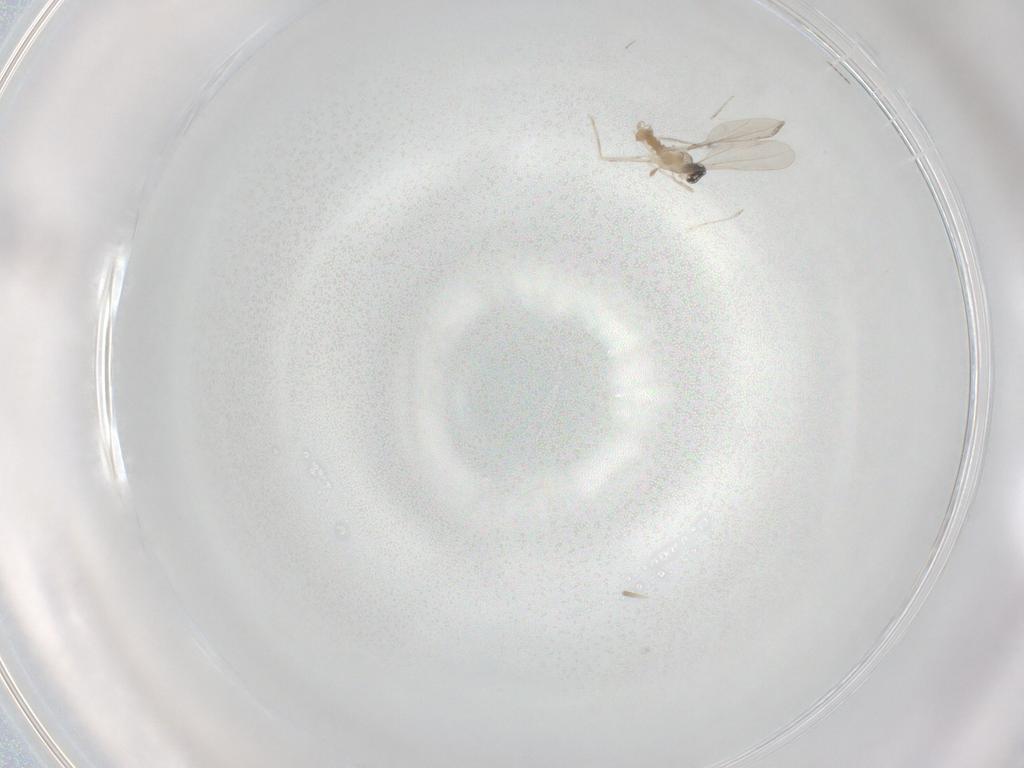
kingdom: Animalia
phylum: Arthropoda
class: Insecta
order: Diptera
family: Cecidomyiidae
